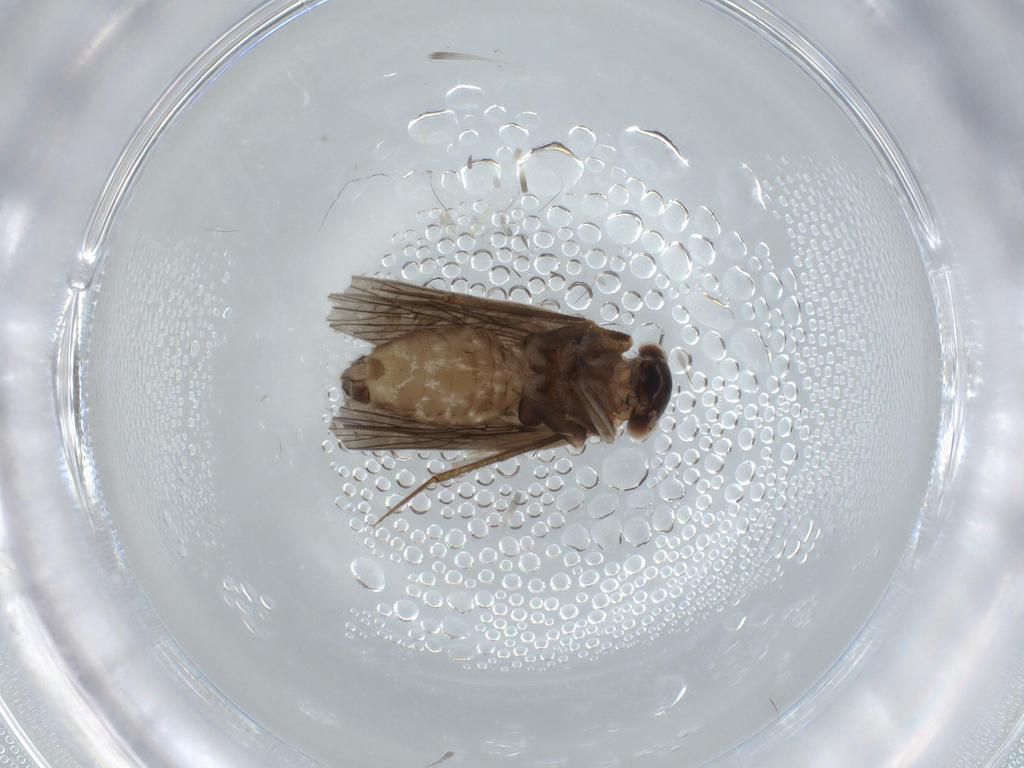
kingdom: Animalia
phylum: Arthropoda
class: Insecta
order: Psocodea
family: Lepidopsocidae
